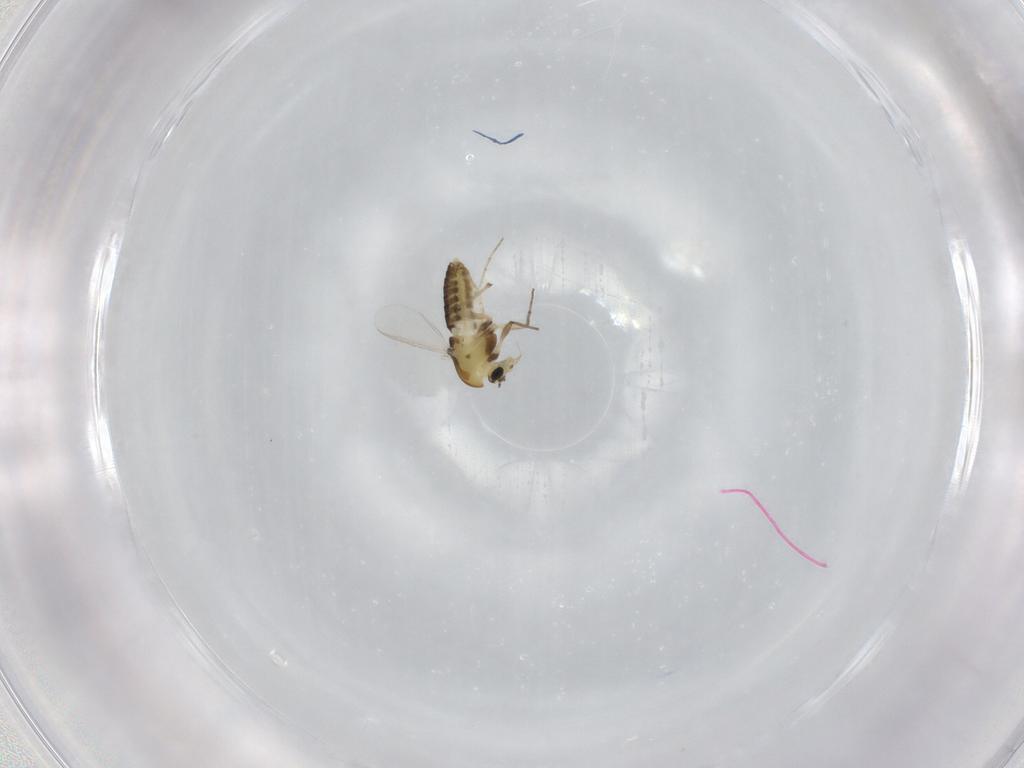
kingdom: Animalia
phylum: Arthropoda
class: Insecta
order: Diptera
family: Chironomidae
